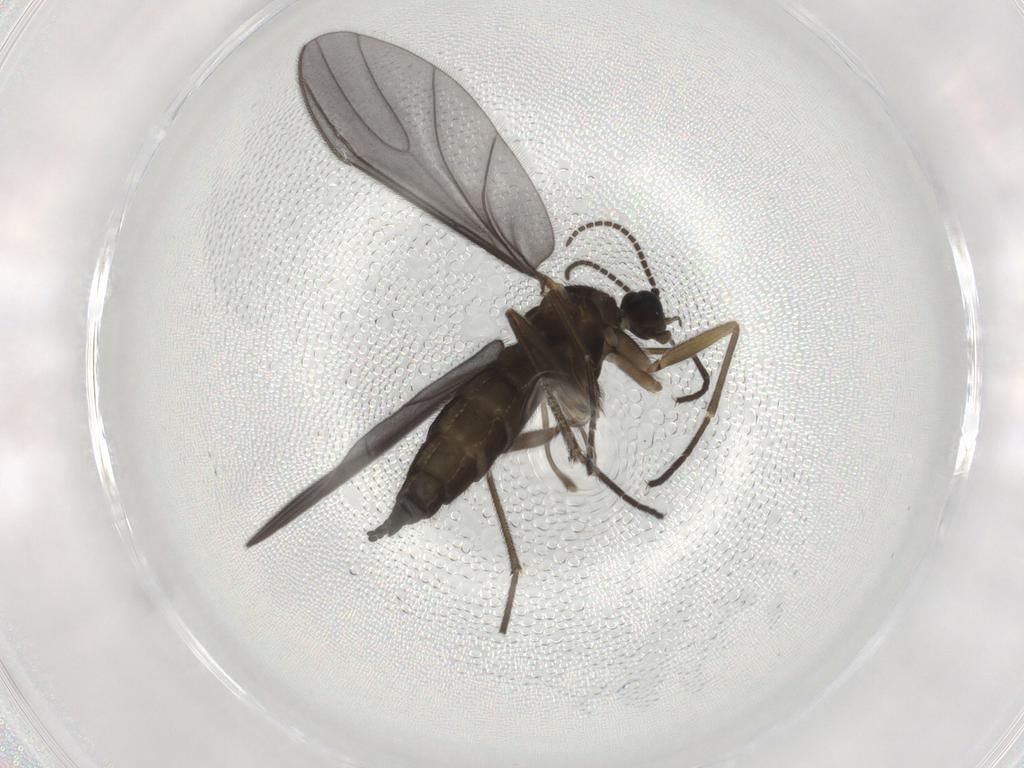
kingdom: Animalia
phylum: Arthropoda
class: Insecta
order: Diptera
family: Sciaridae
